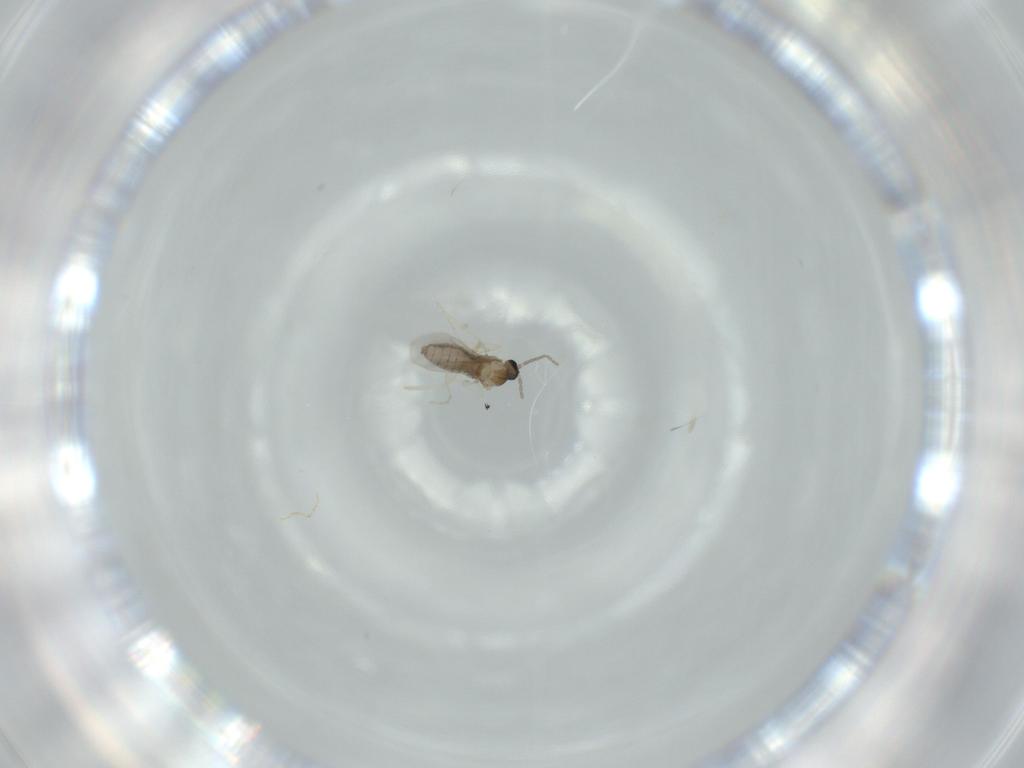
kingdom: Animalia
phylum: Arthropoda
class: Insecta
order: Diptera
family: Cecidomyiidae
